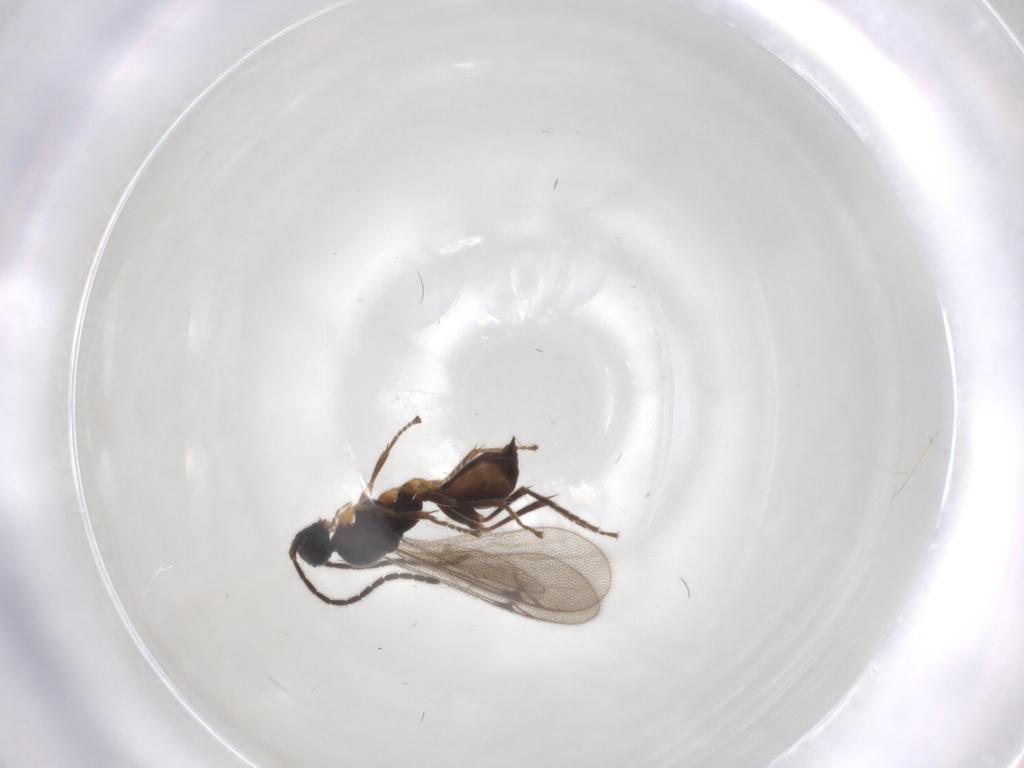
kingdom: Animalia
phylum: Arthropoda
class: Insecta
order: Hymenoptera
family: Proctotrupidae
